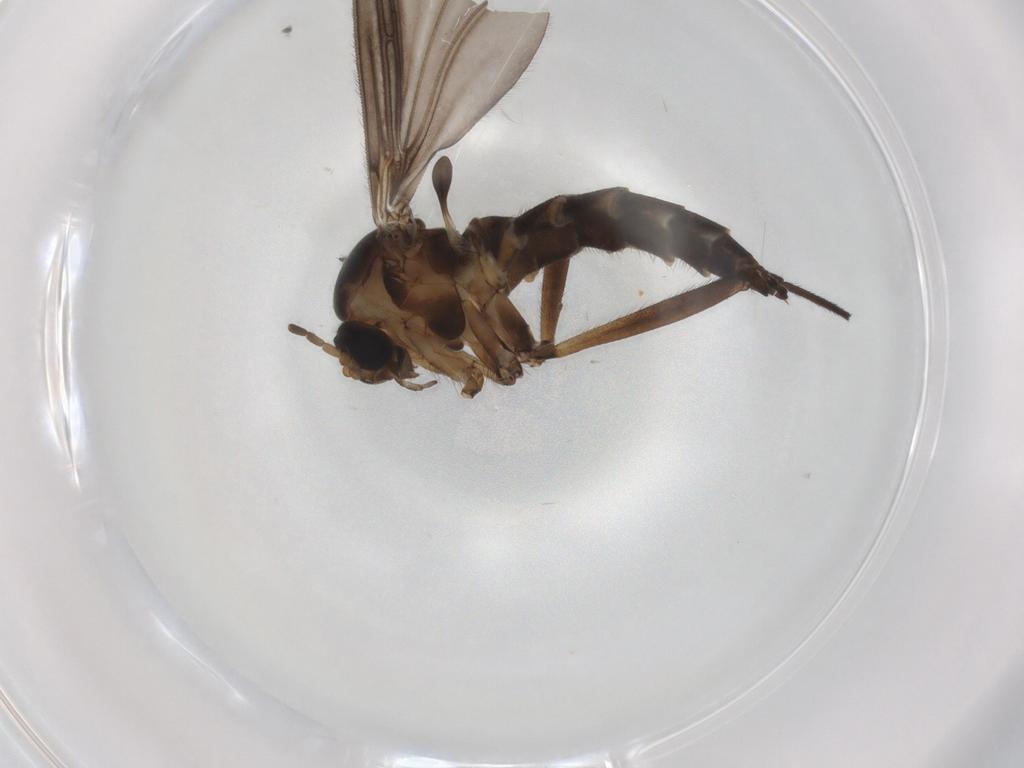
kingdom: Animalia
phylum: Arthropoda
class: Insecta
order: Diptera
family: Sciaridae
